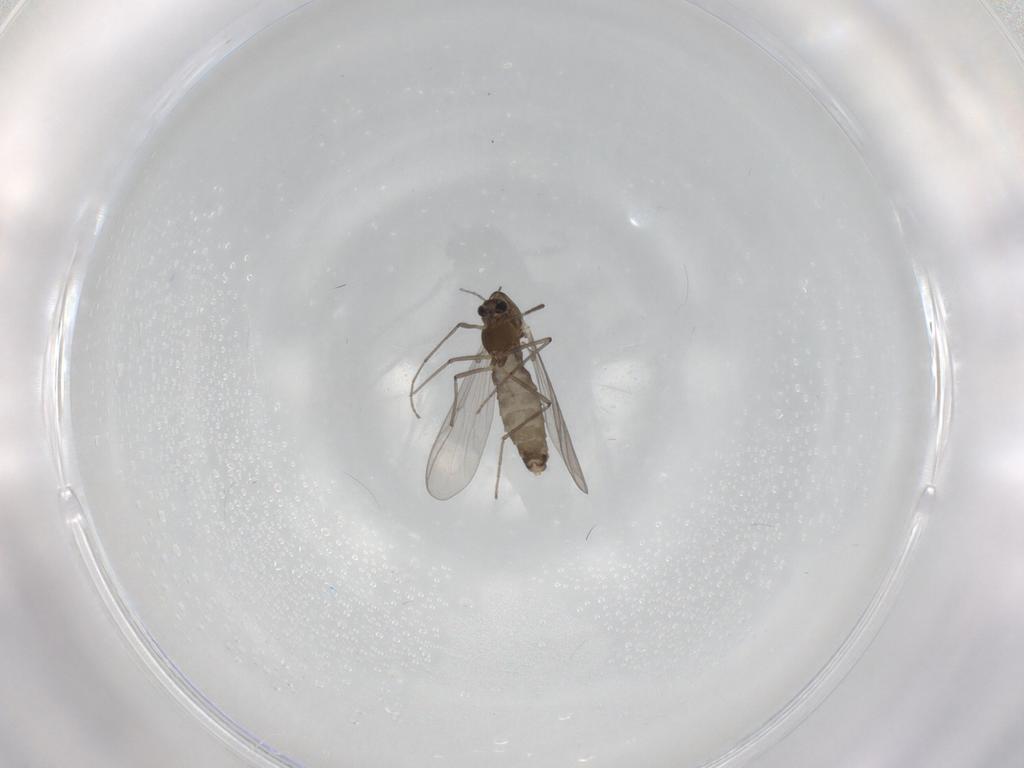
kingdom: Animalia
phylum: Arthropoda
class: Insecta
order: Diptera
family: Chironomidae
